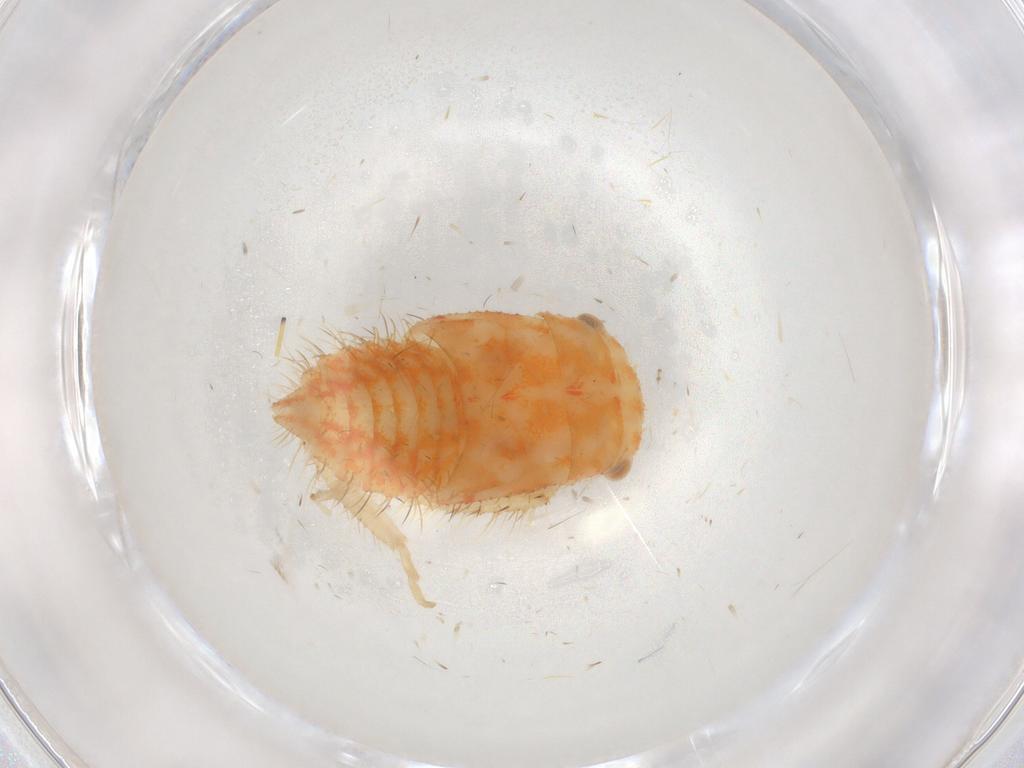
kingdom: Animalia
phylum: Arthropoda
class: Insecta
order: Hemiptera
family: Cicadellidae
